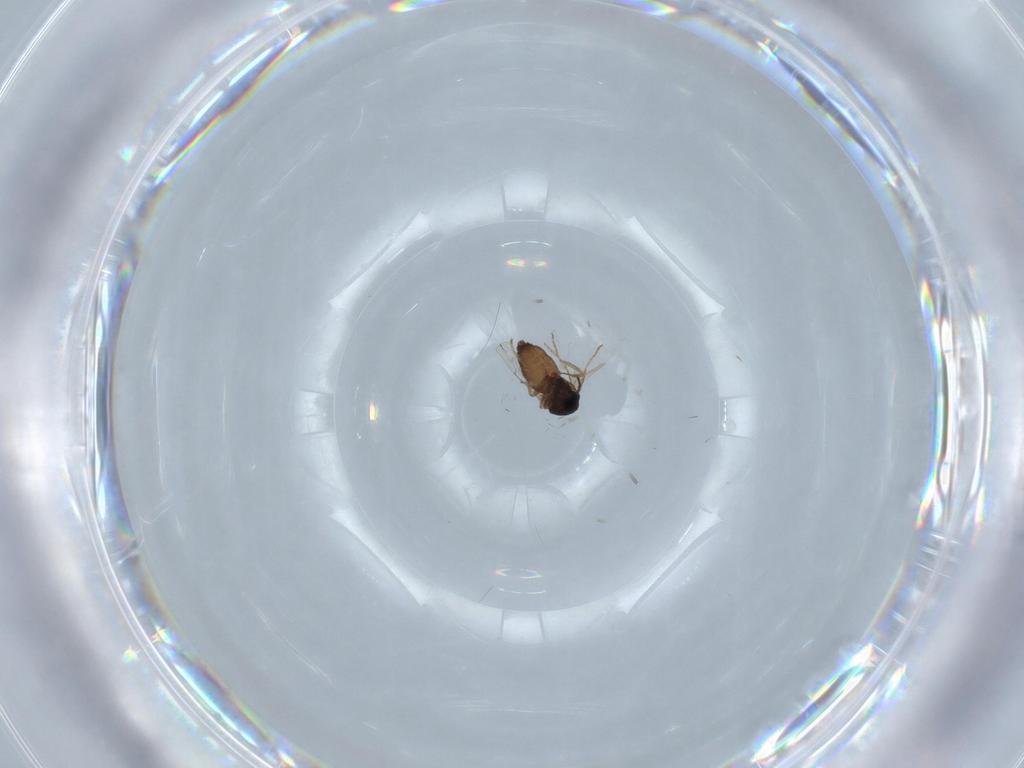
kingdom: Animalia
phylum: Arthropoda
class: Insecta
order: Diptera
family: Ceratopogonidae
